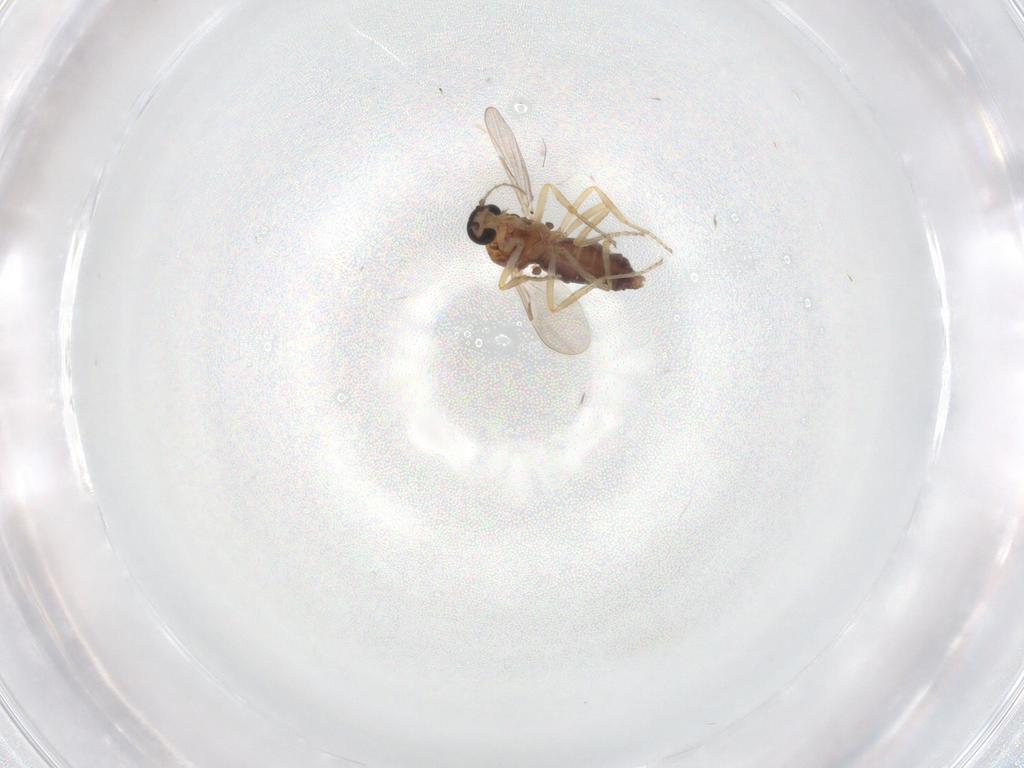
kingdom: Animalia
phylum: Arthropoda
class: Insecta
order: Diptera
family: Ceratopogonidae
